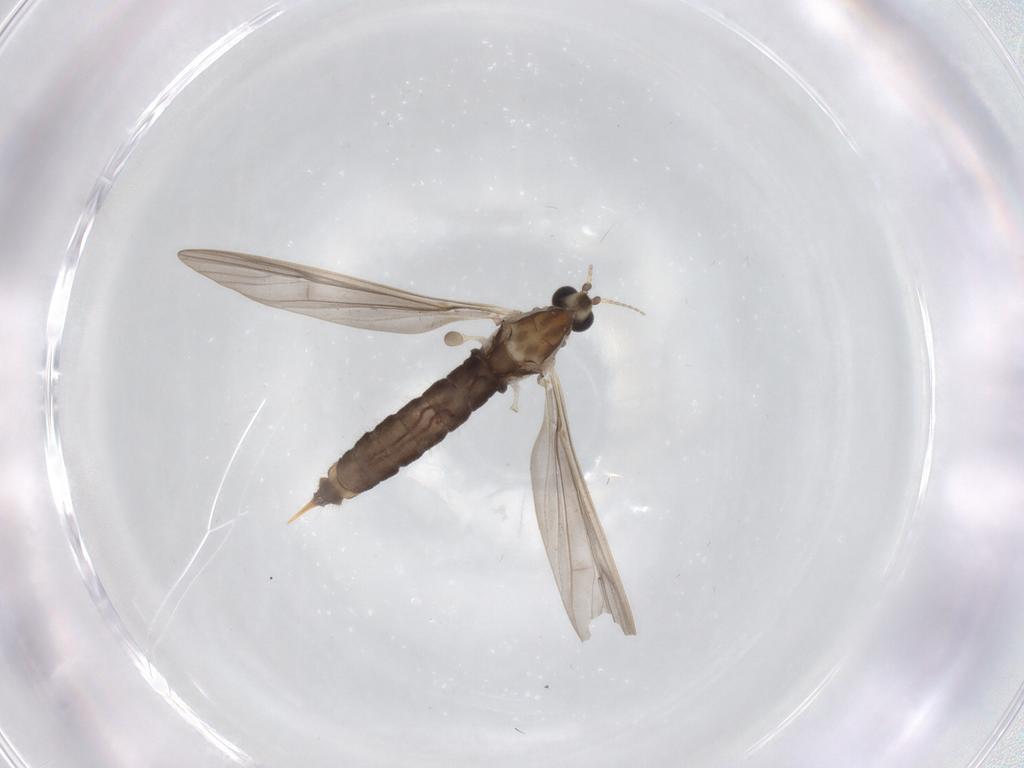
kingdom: Animalia
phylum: Arthropoda
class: Insecta
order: Diptera
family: Limoniidae
